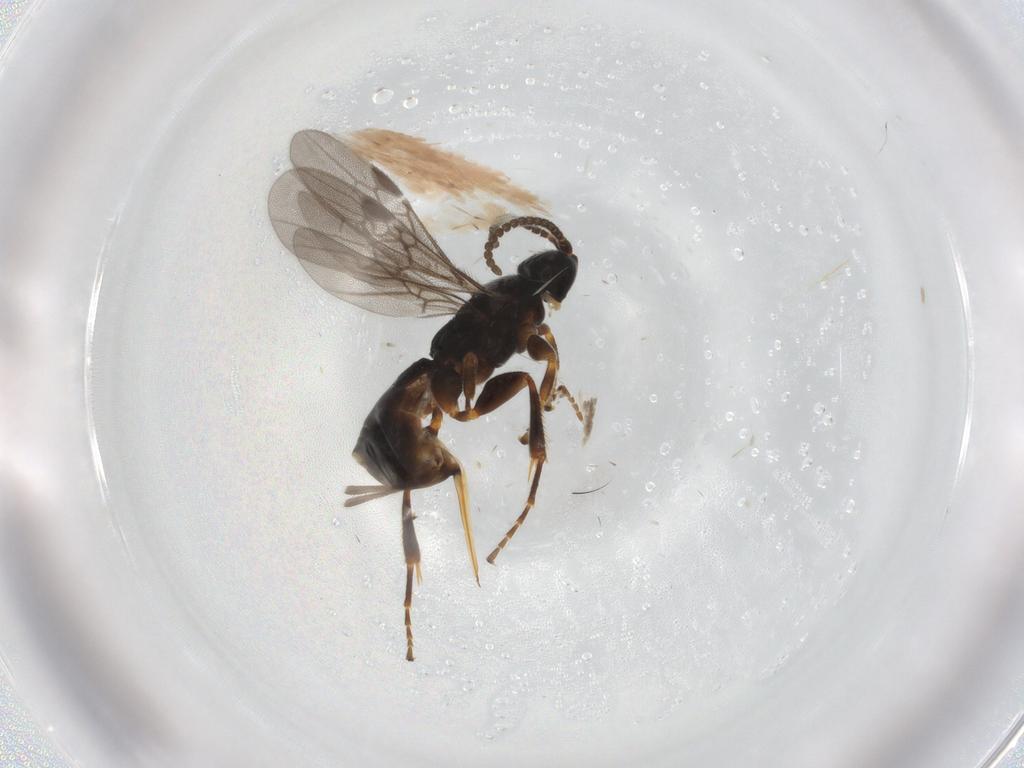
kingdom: Animalia
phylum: Arthropoda
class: Insecta
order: Hymenoptera
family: Braconidae
